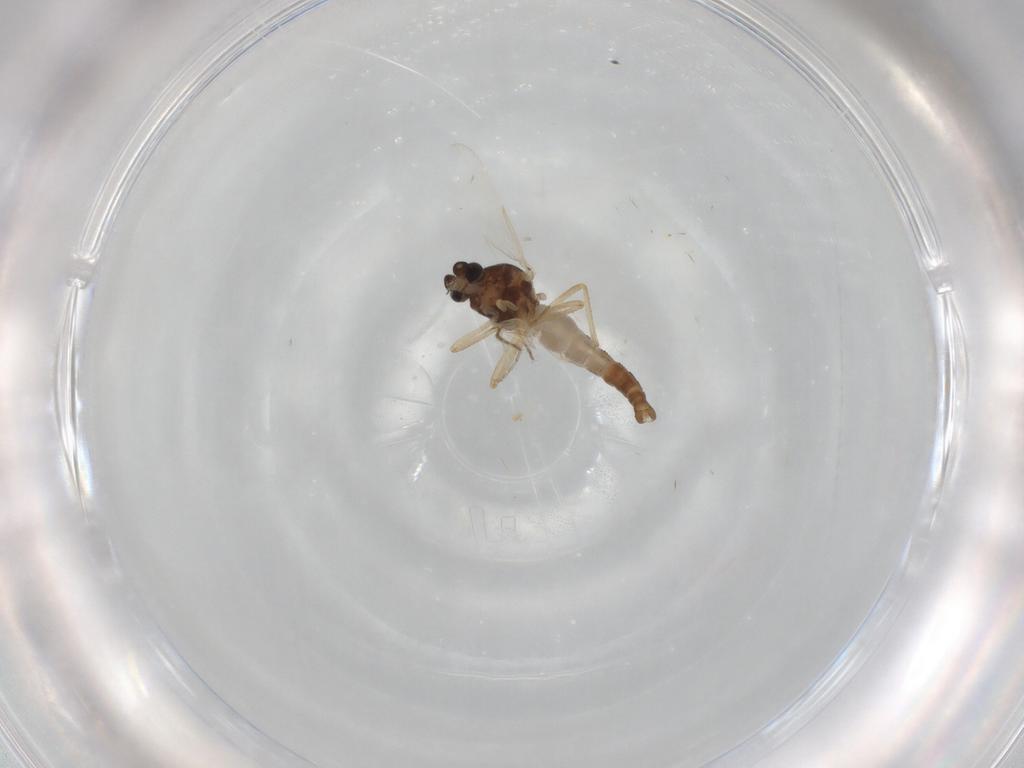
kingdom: Animalia
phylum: Arthropoda
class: Insecta
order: Diptera
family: Ceratopogonidae
